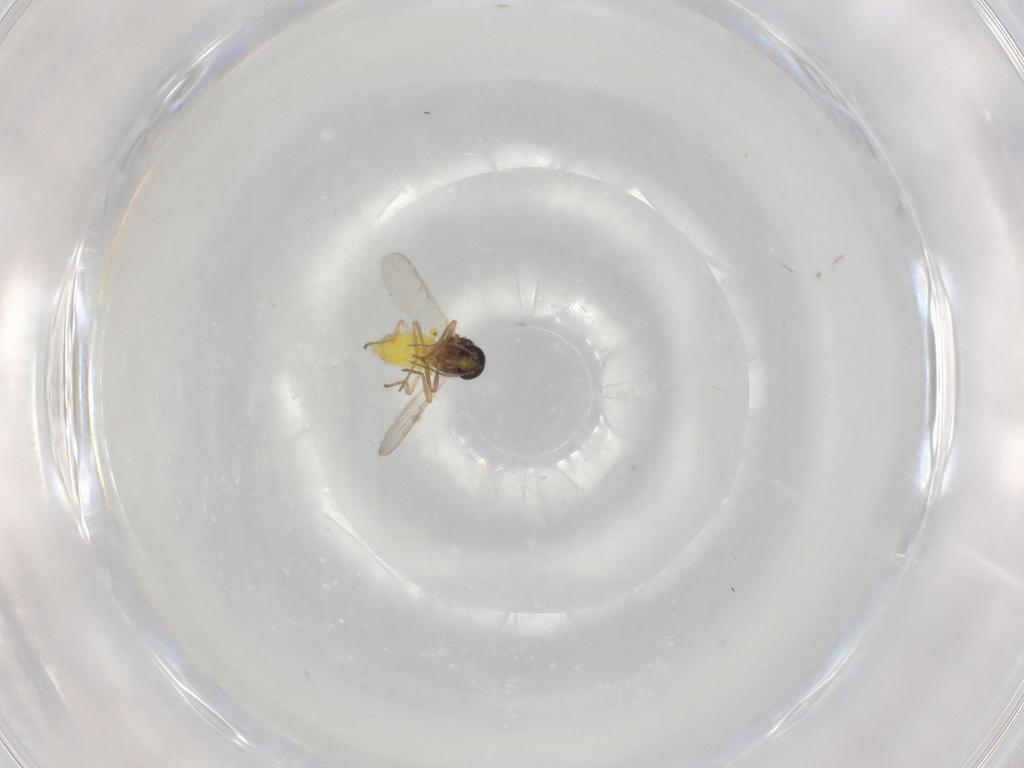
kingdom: Animalia
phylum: Arthropoda
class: Insecta
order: Diptera
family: Ceratopogonidae
